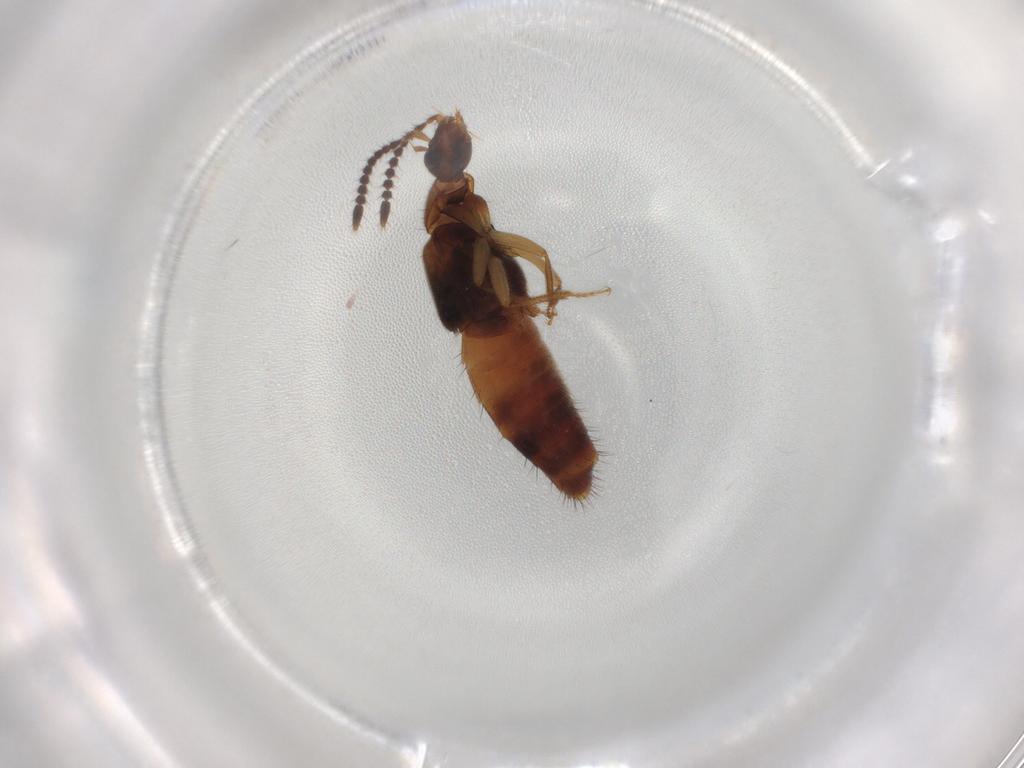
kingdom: Animalia
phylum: Arthropoda
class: Insecta
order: Coleoptera
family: Staphylinidae
